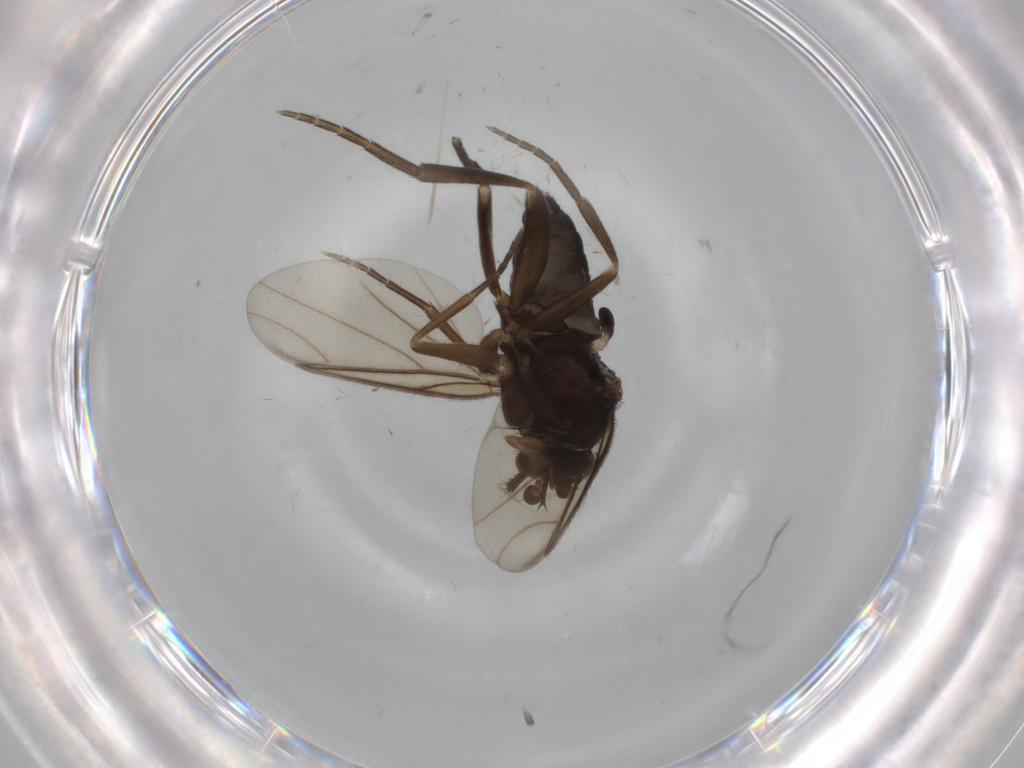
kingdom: Animalia
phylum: Arthropoda
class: Insecta
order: Diptera
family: Phoridae
